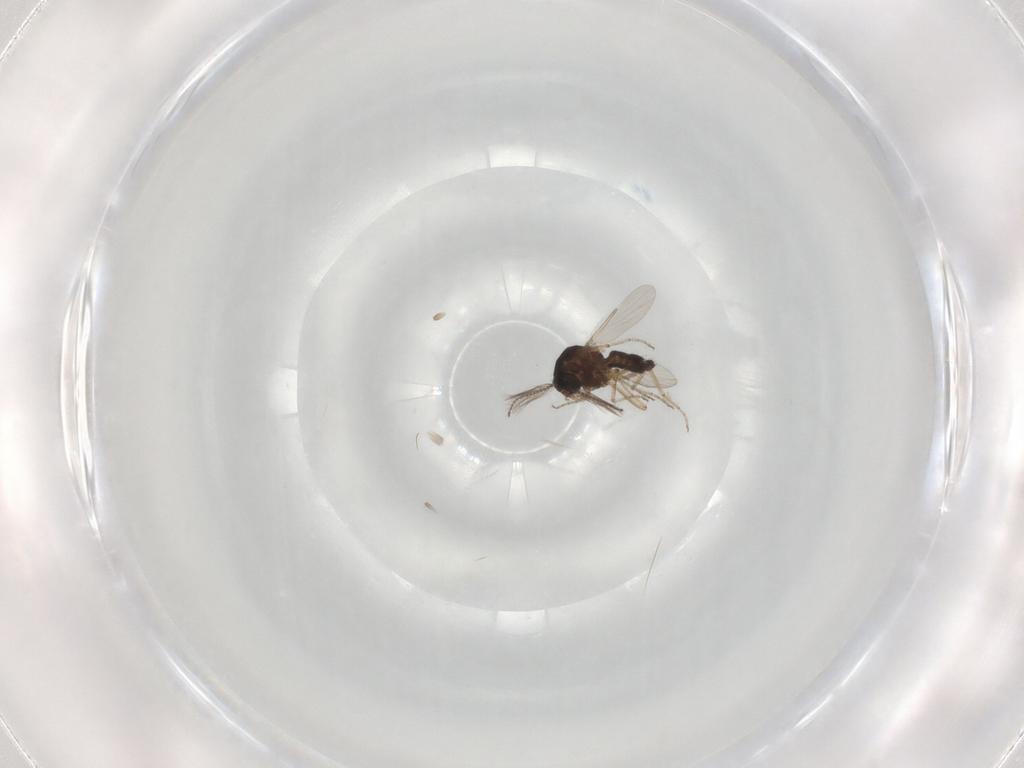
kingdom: Animalia
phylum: Arthropoda
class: Insecta
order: Diptera
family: Ceratopogonidae
